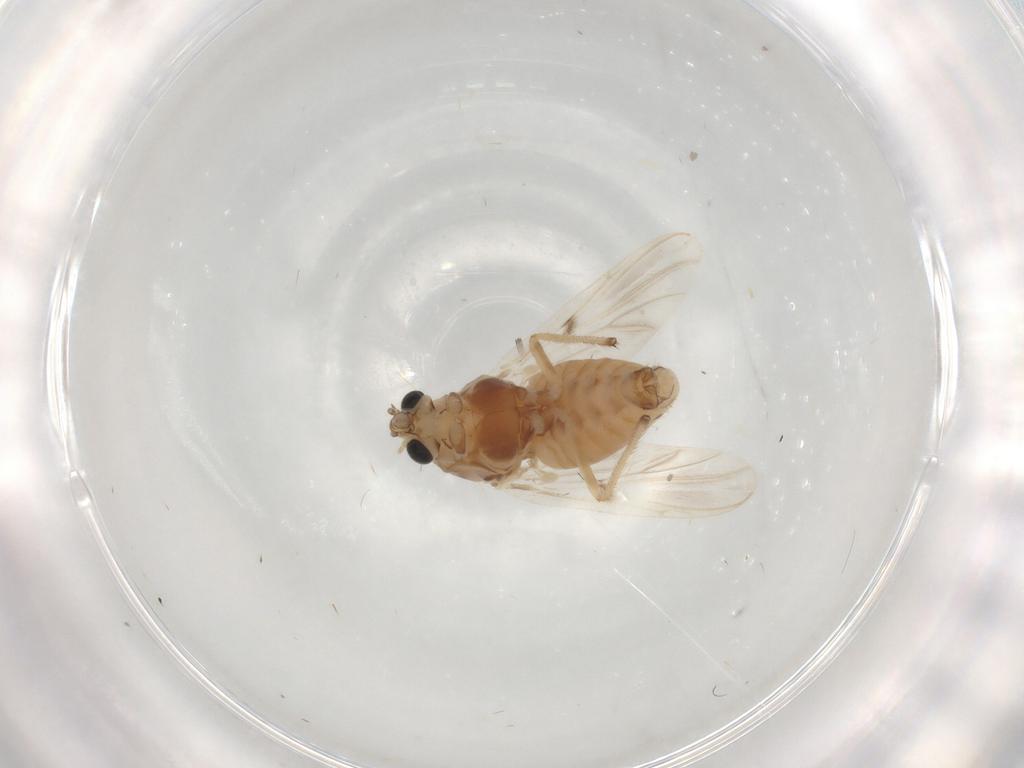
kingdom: Animalia
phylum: Arthropoda
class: Insecta
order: Diptera
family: Chironomidae
